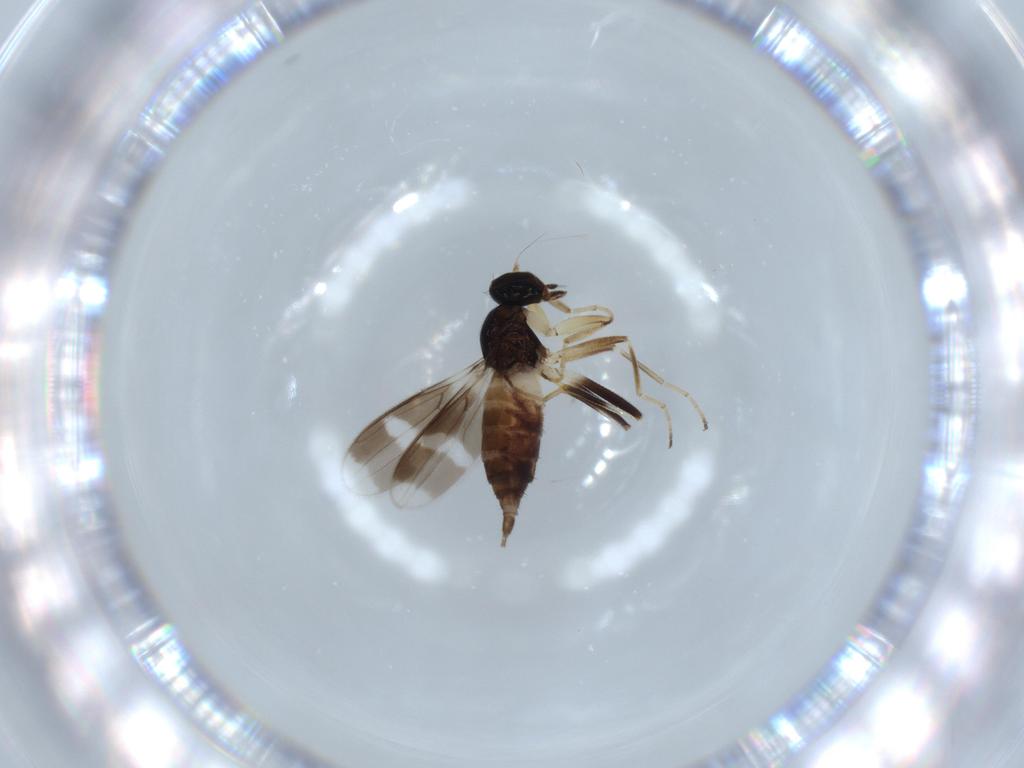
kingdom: Animalia
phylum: Arthropoda
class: Insecta
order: Diptera
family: Hybotidae
